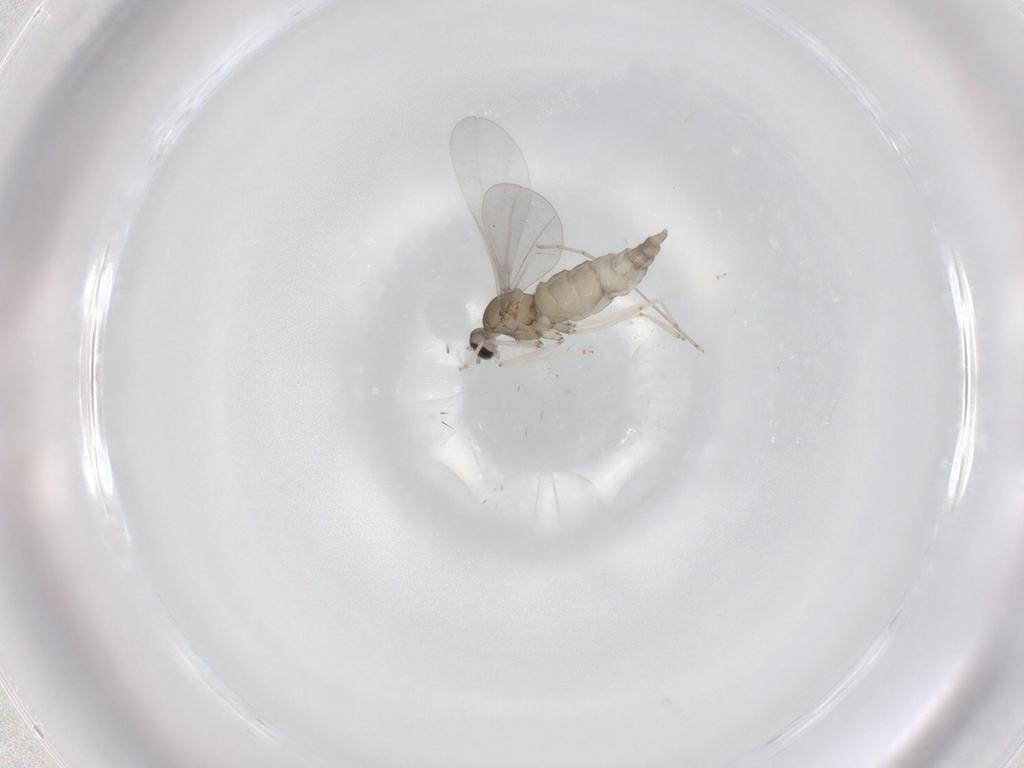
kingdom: Animalia
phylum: Arthropoda
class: Insecta
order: Diptera
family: Cecidomyiidae
